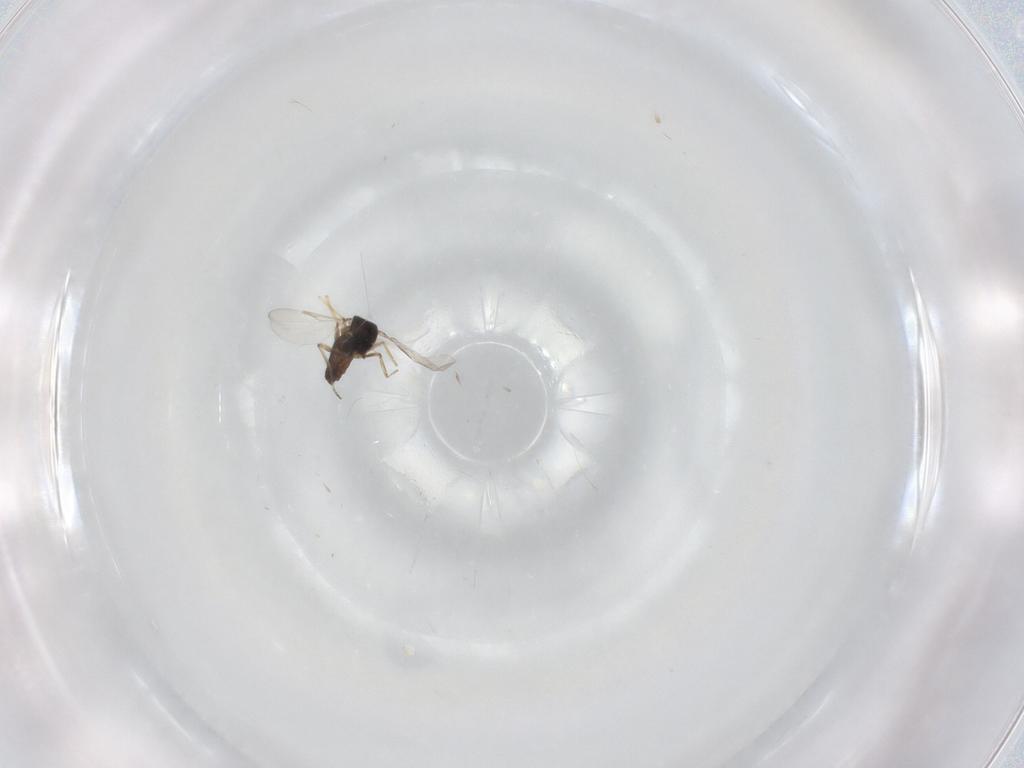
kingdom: Animalia
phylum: Arthropoda
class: Insecta
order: Diptera
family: Ceratopogonidae
